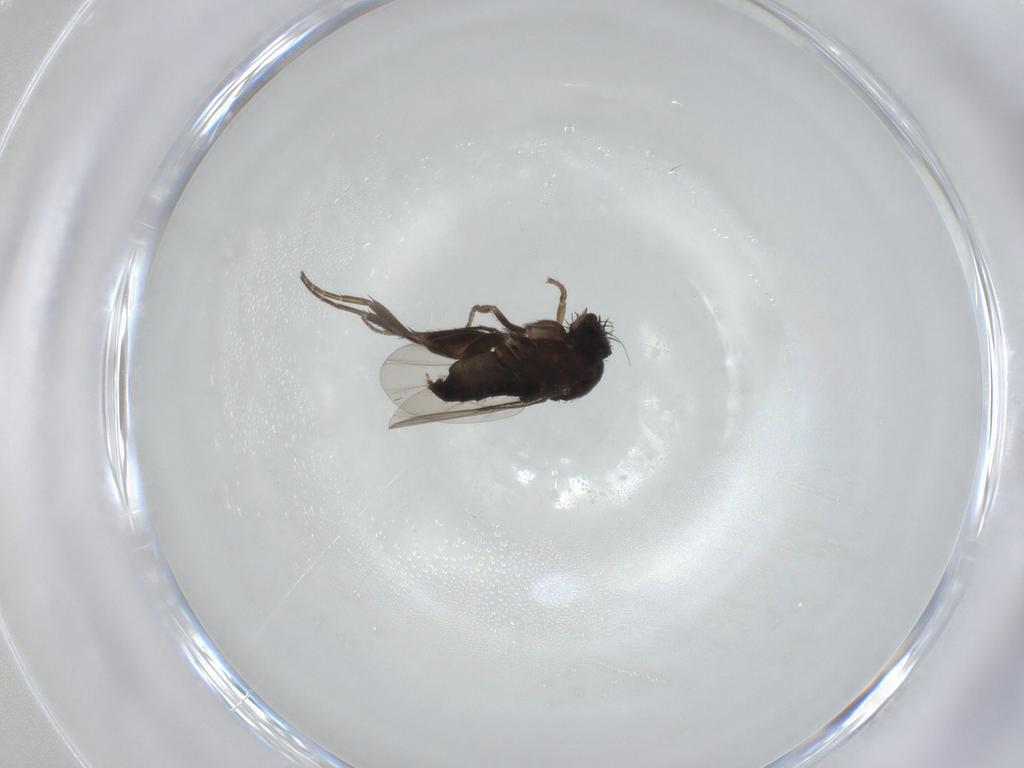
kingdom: Animalia
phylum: Arthropoda
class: Insecta
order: Diptera
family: Phoridae
